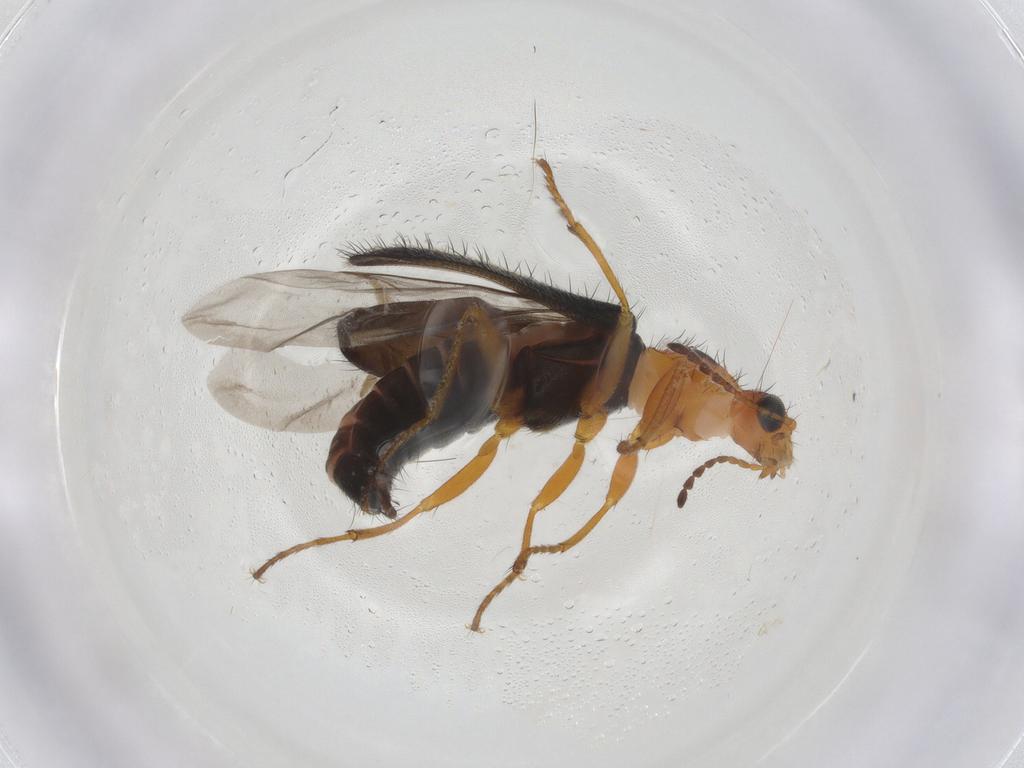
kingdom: Animalia
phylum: Arthropoda
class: Insecta
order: Coleoptera
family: Melyridae
